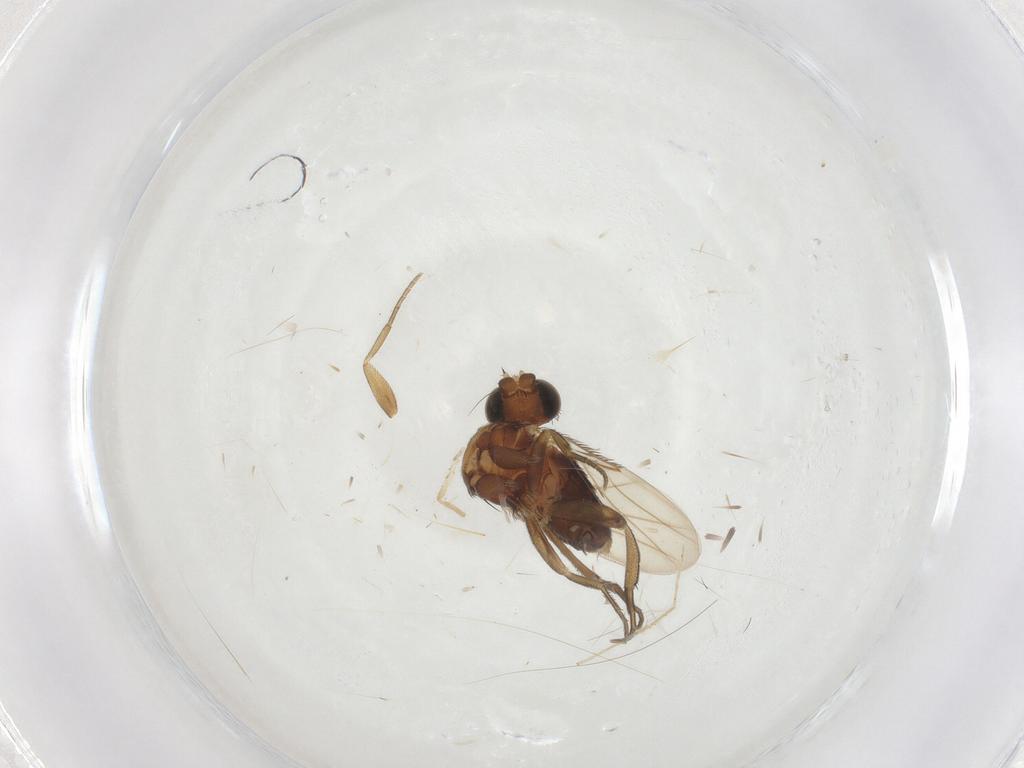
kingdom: Animalia
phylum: Arthropoda
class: Insecta
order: Diptera
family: Phoridae
